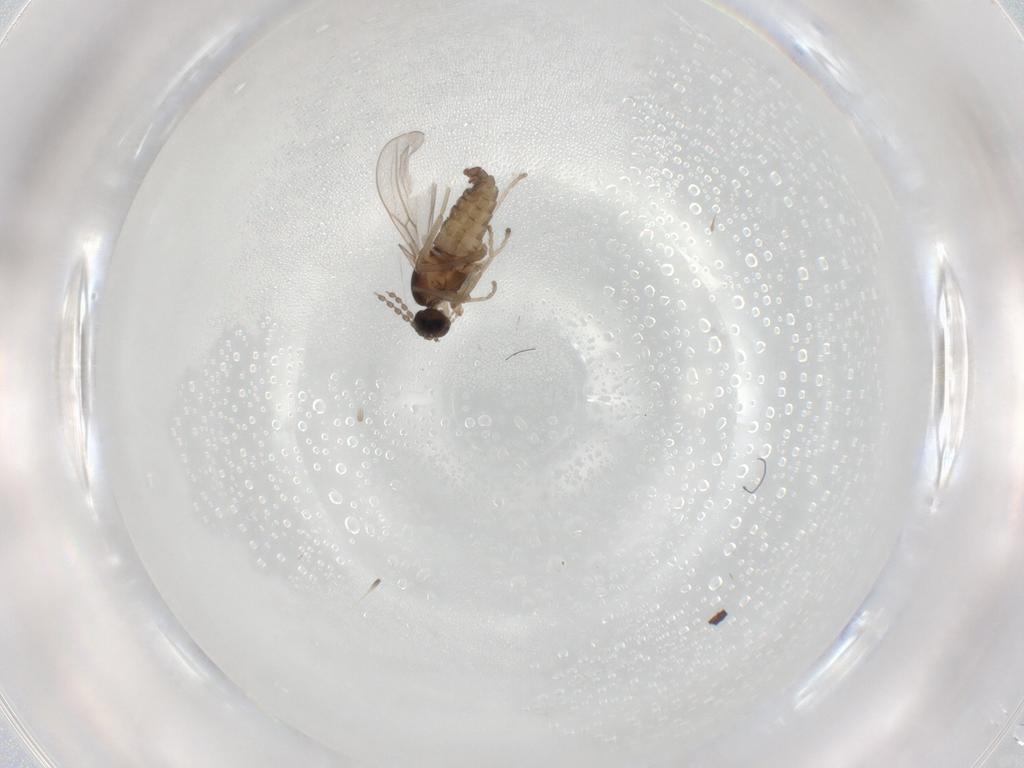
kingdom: Animalia
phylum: Arthropoda
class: Insecta
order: Diptera
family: Cecidomyiidae
